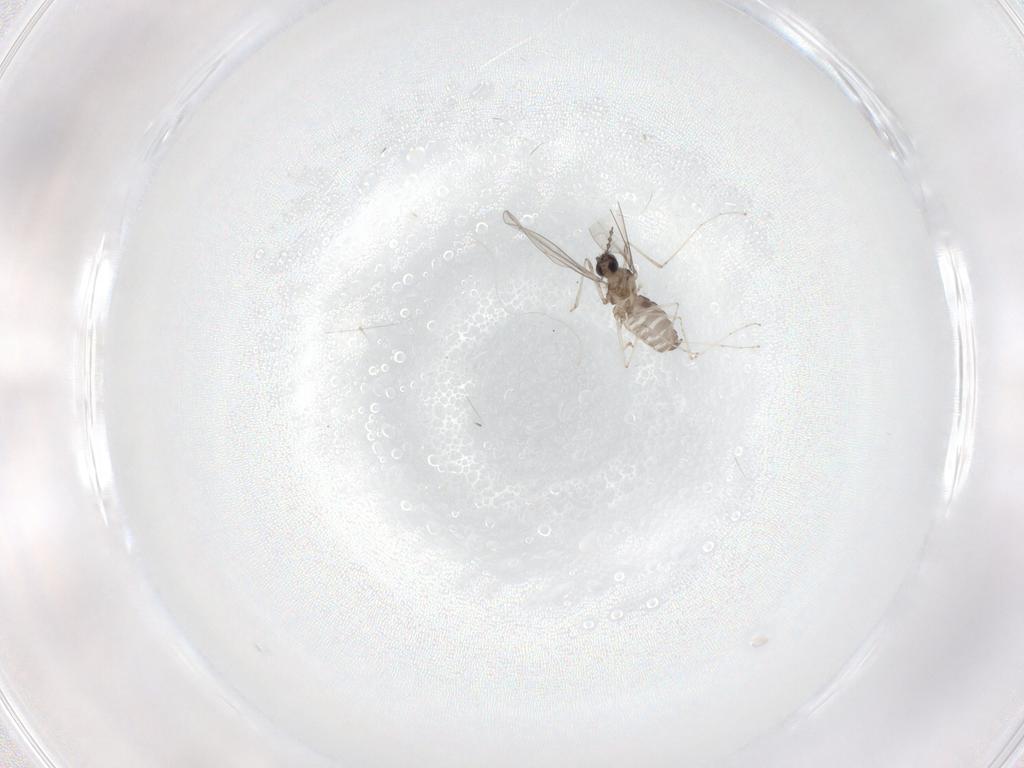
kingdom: Animalia
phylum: Arthropoda
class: Insecta
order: Diptera
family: Cecidomyiidae
